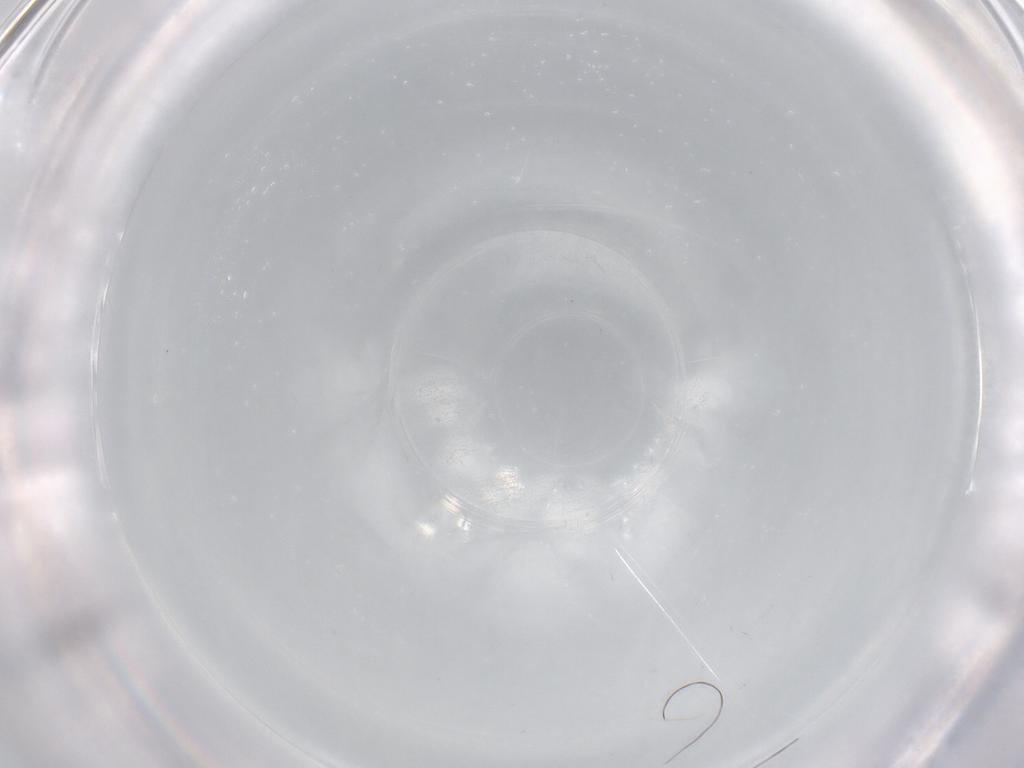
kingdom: Animalia
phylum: Arthropoda
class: Insecta
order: Diptera
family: Cecidomyiidae
